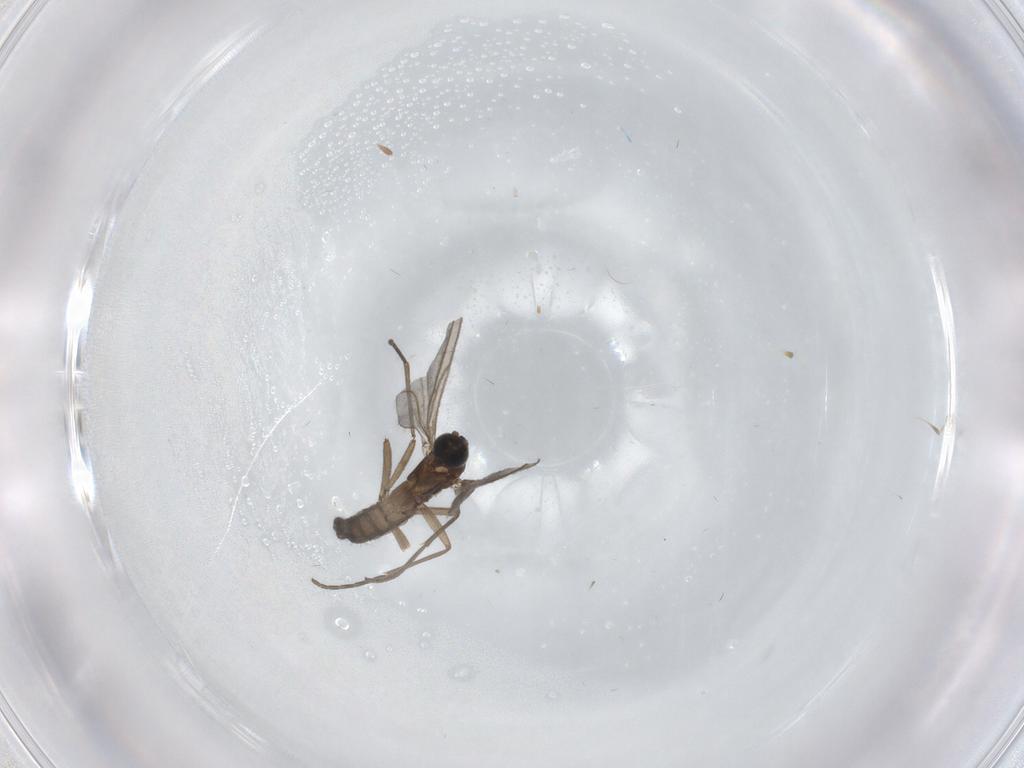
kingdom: Animalia
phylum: Arthropoda
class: Insecta
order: Diptera
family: Sciaridae
